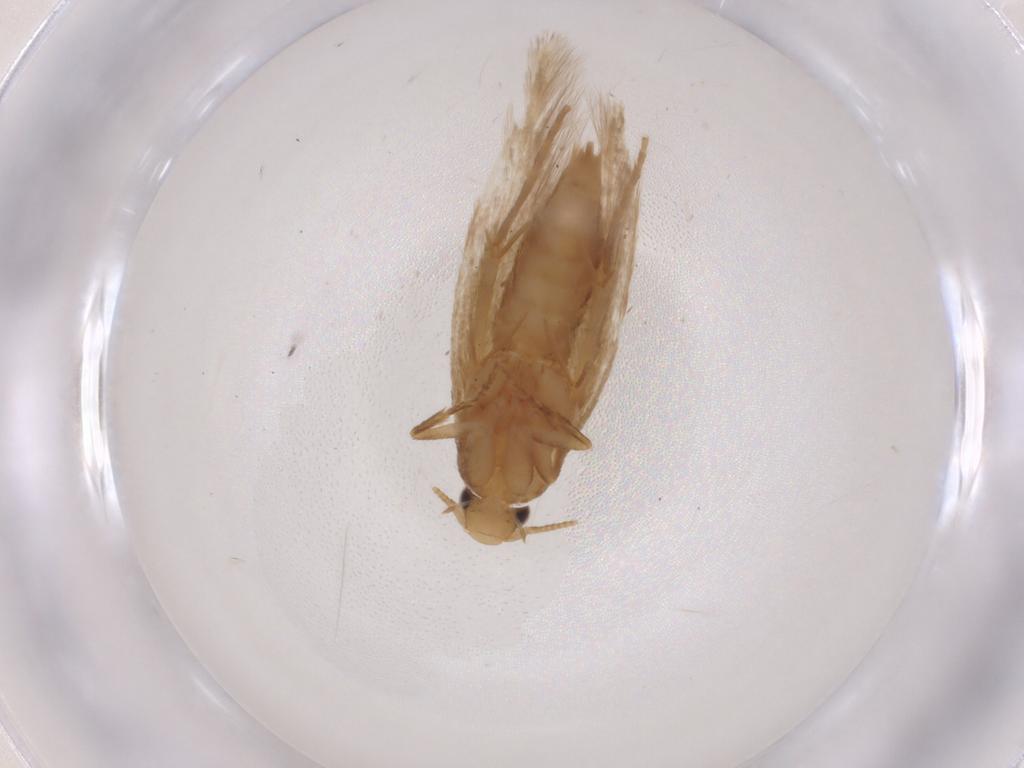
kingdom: Animalia
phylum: Arthropoda
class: Insecta
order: Lepidoptera
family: Tineidae
